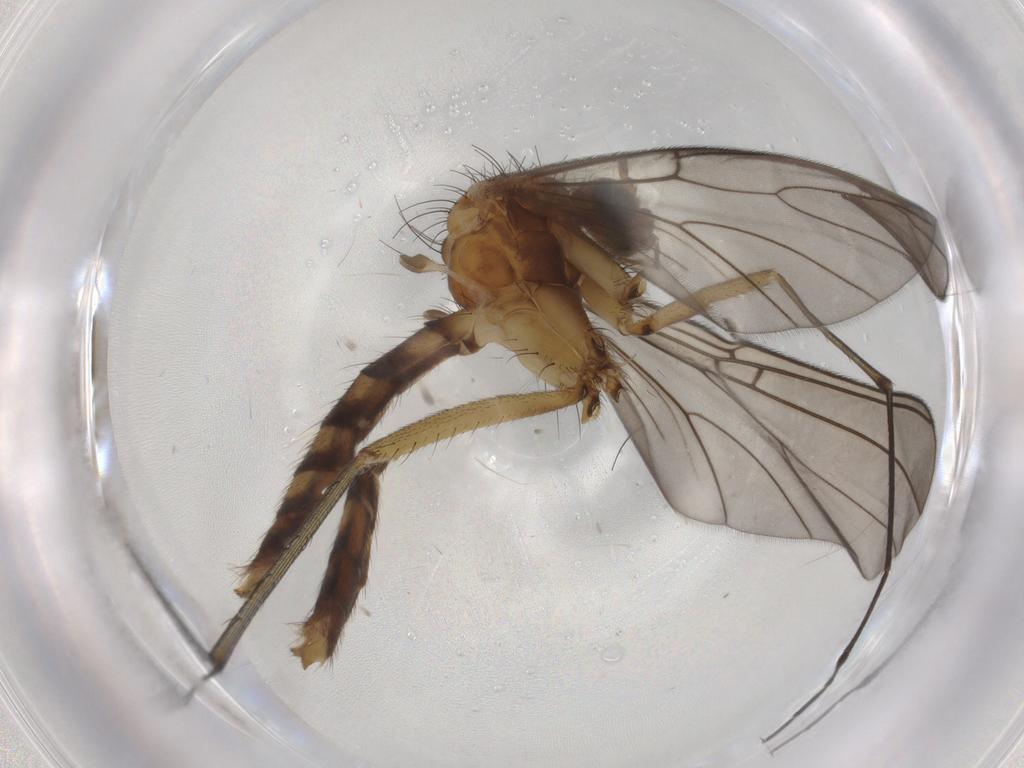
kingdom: Animalia
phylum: Arthropoda
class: Insecta
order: Diptera
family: Mycetophilidae
